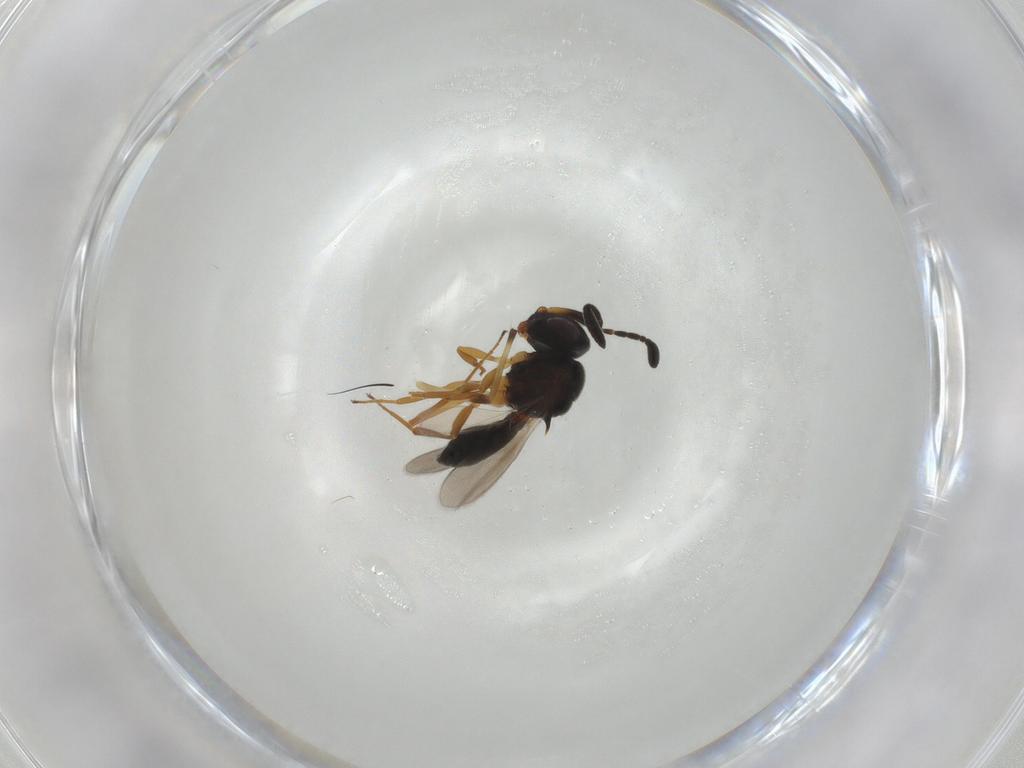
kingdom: Animalia
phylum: Arthropoda
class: Insecta
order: Hymenoptera
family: Scelionidae
